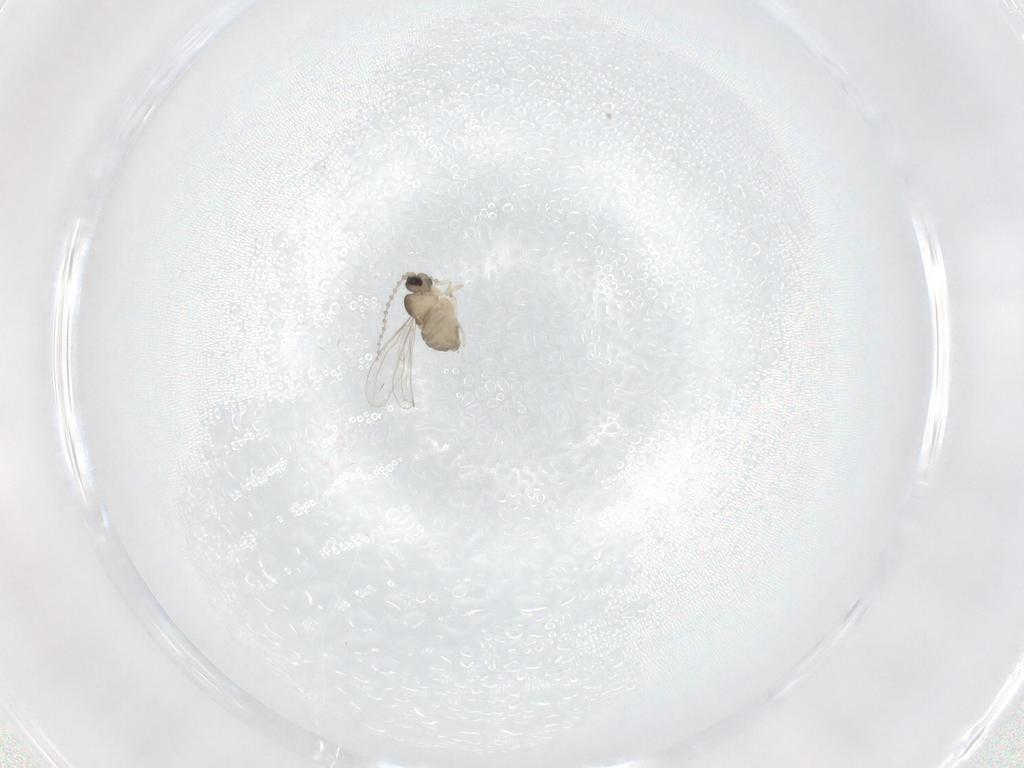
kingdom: Animalia
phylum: Arthropoda
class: Insecta
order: Diptera
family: Cecidomyiidae
